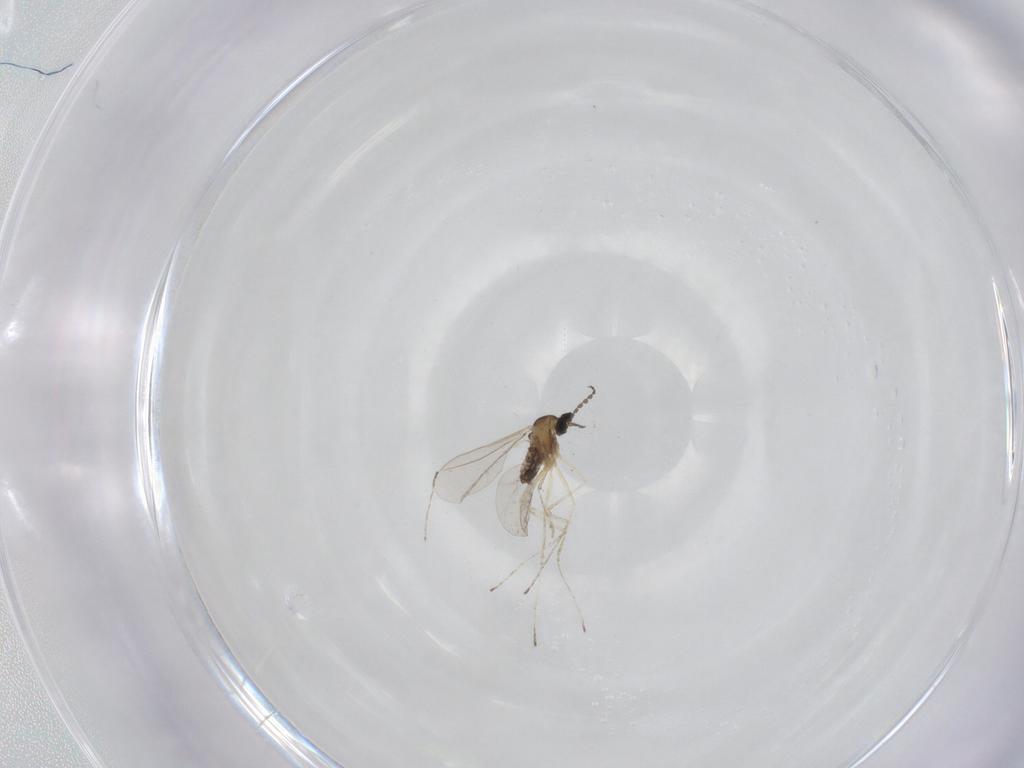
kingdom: Animalia
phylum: Arthropoda
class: Insecta
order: Diptera
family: Cecidomyiidae
